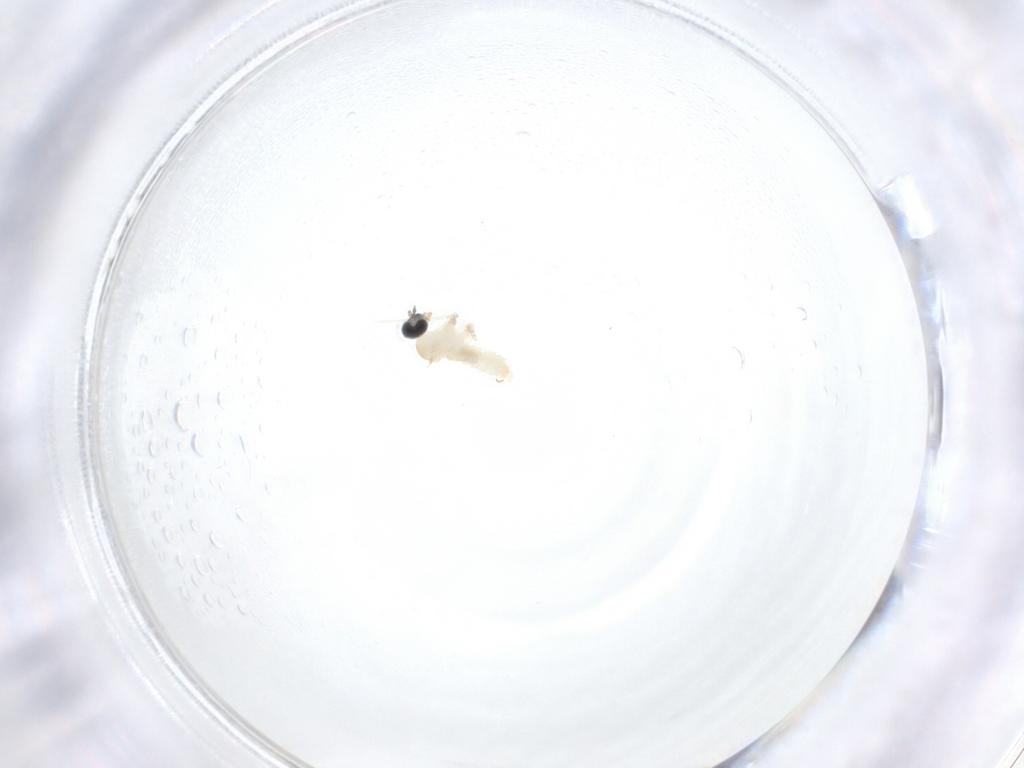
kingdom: Animalia
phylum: Arthropoda
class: Insecta
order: Diptera
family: Cecidomyiidae
